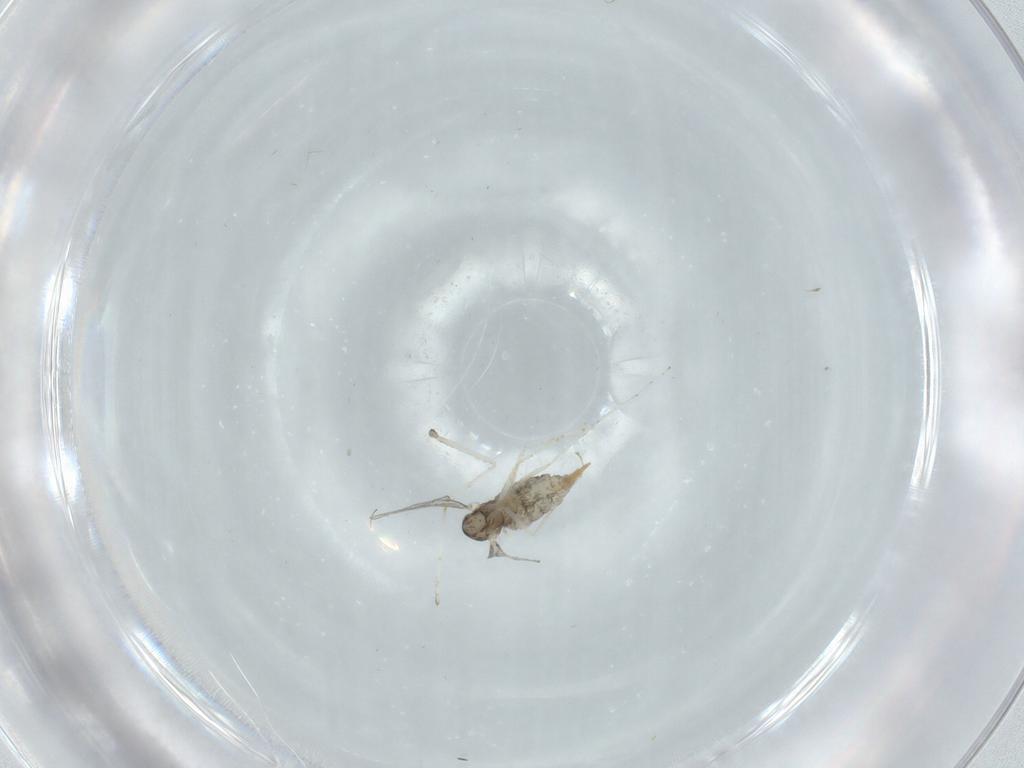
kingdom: Animalia
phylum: Arthropoda
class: Insecta
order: Diptera
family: Cecidomyiidae
